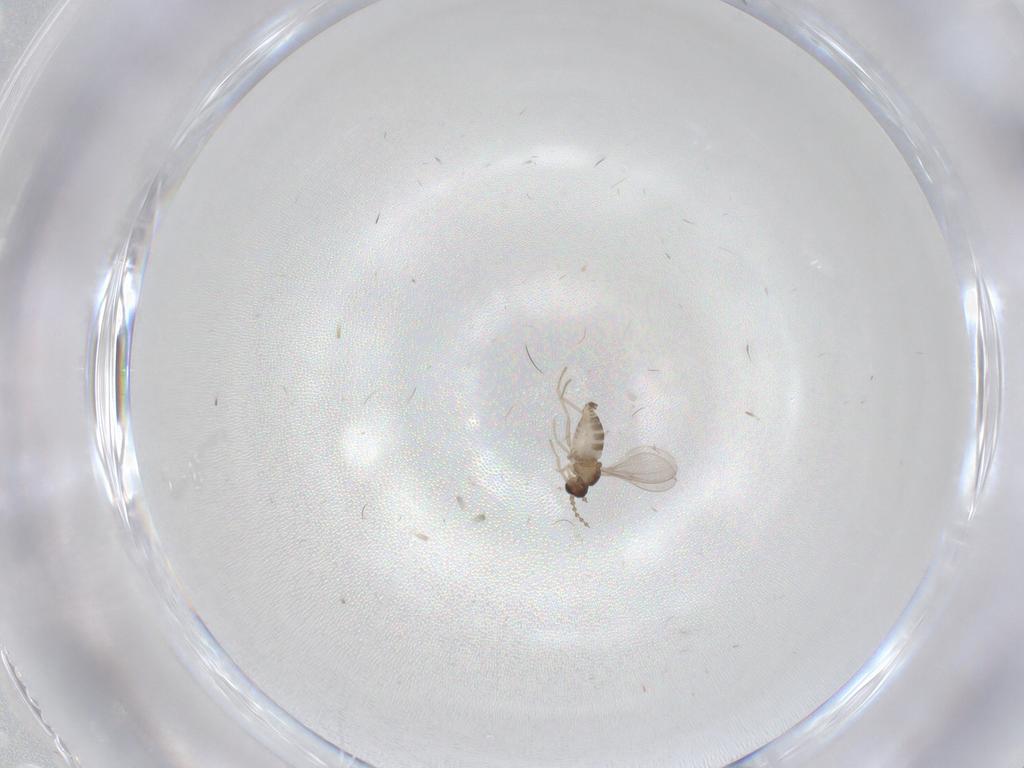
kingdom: Animalia
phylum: Arthropoda
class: Insecta
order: Diptera
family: Cecidomyiidae
